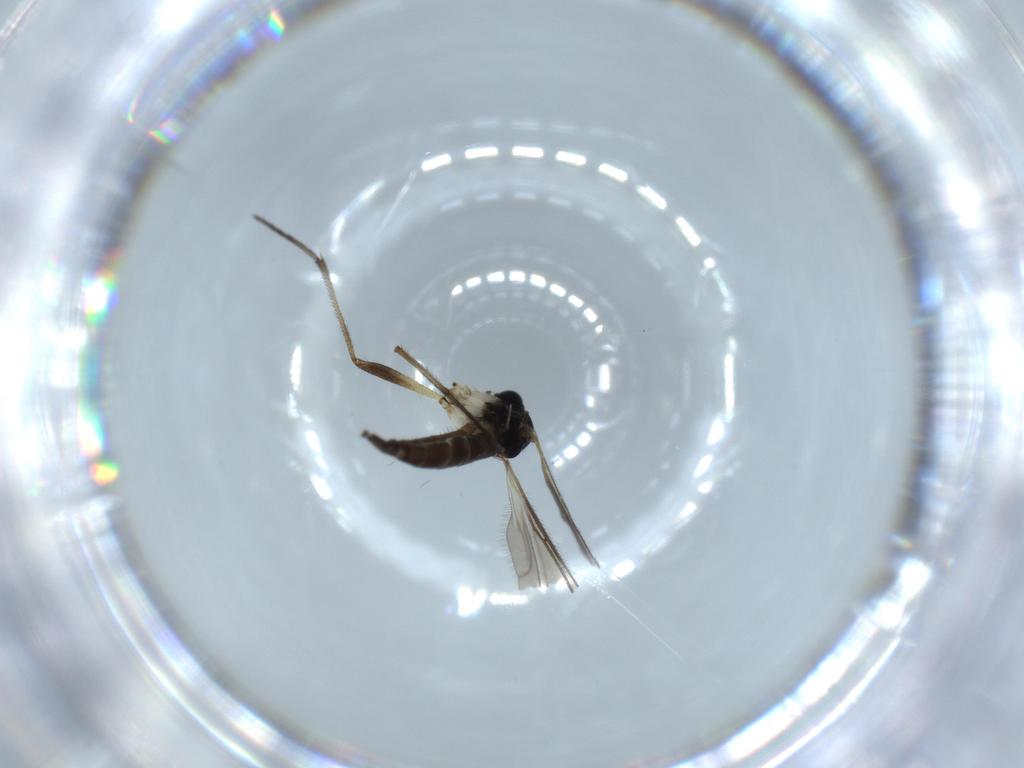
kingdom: Animalia
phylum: Arthropoda
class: Insecta
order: Diptera
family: Sciaridae
